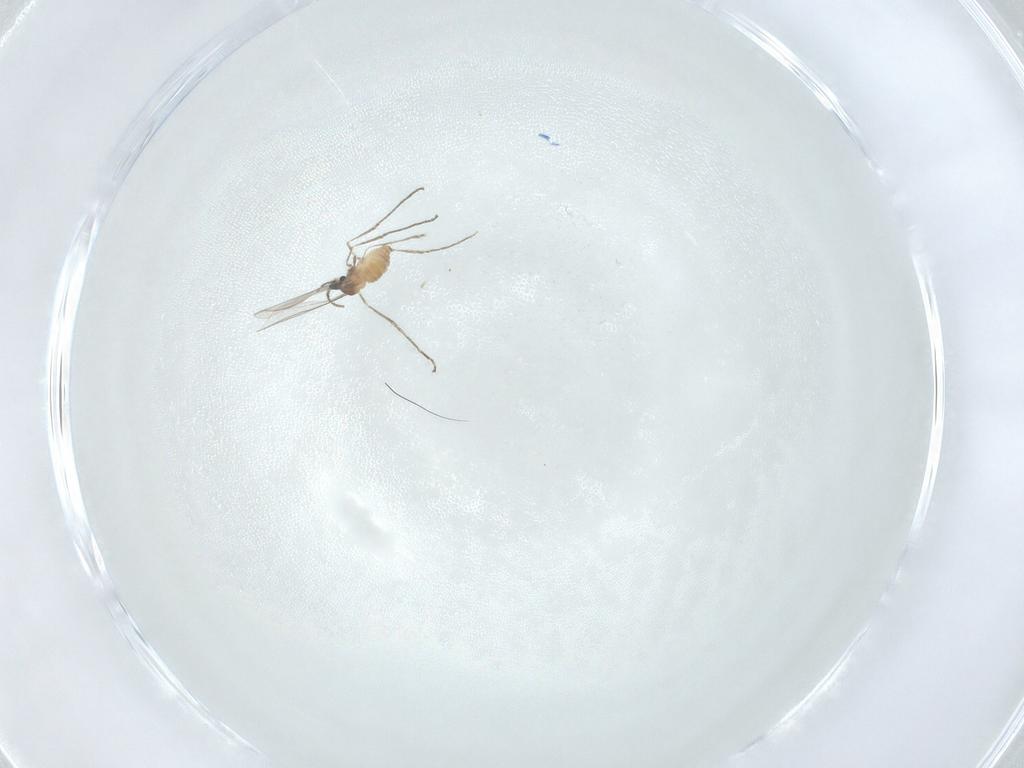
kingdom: Animalia
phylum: Arthropoda
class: Insecta
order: Diptera
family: Cecidomyiidae
